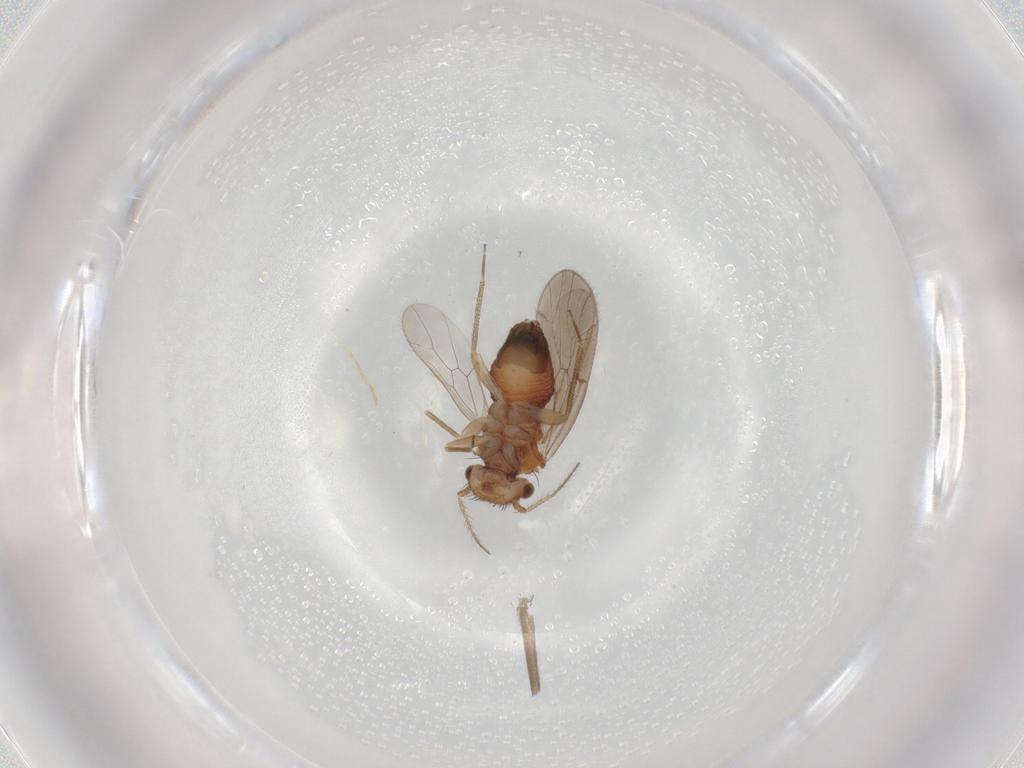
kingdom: Animalia
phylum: Arthropoda
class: Insecta
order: Psocodea
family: Ectopsocidae
